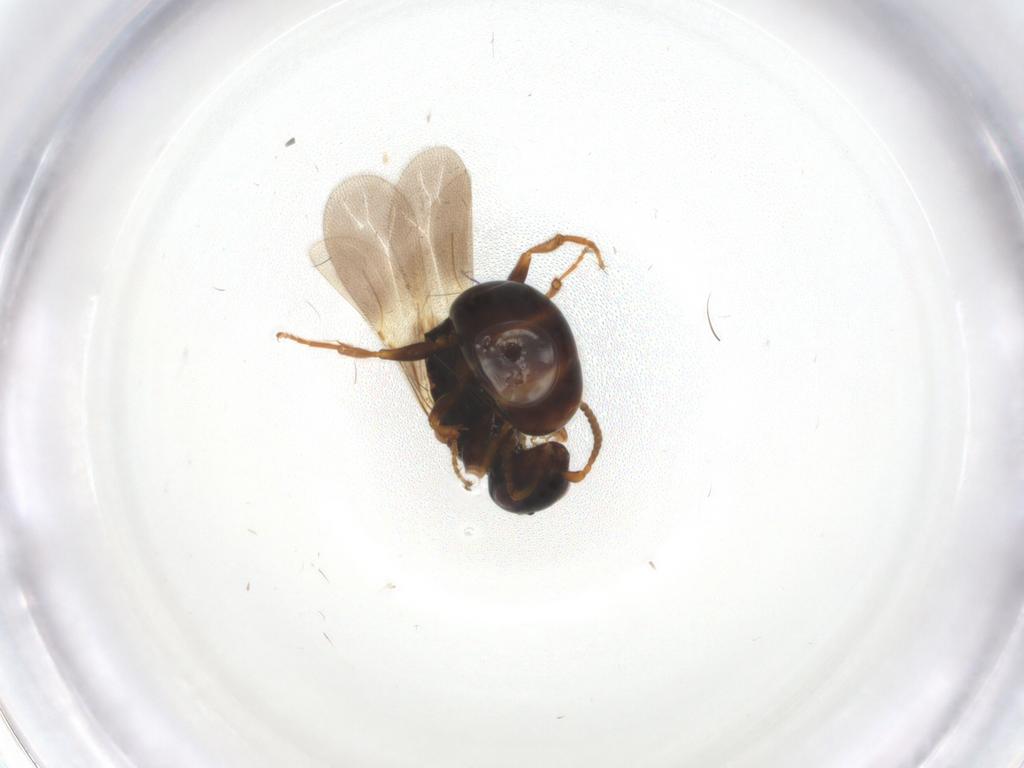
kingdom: Animalia
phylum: Arthropoda
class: Insecta
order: Hymenoptera
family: Bethylidae
